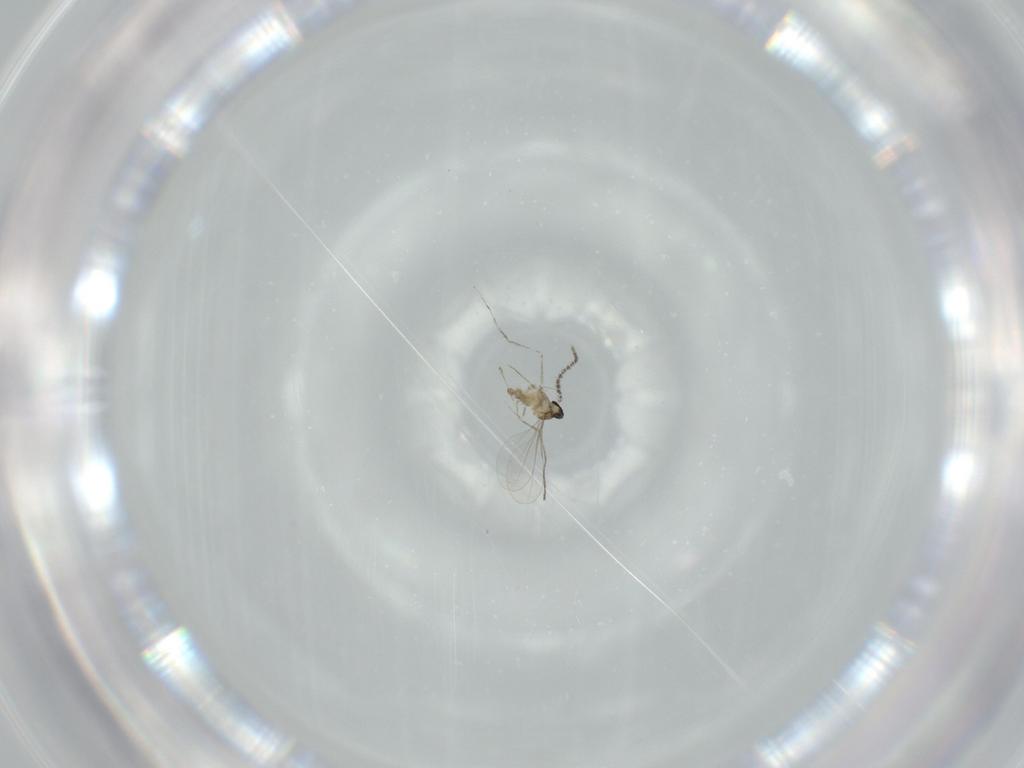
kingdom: Animalia
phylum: Arthropoda
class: Insecta
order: Diptera
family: Cecidomyiidae
